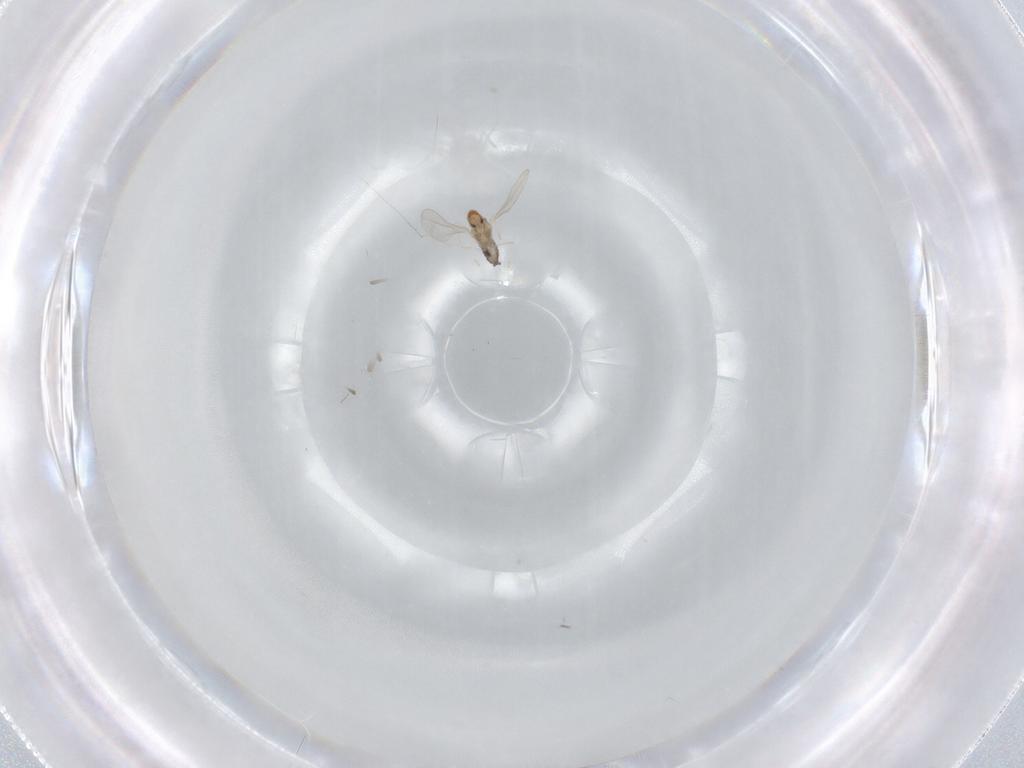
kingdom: Animalia
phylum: Arthropoda
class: Insecta
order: Diptera
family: Cecidomyiidae
